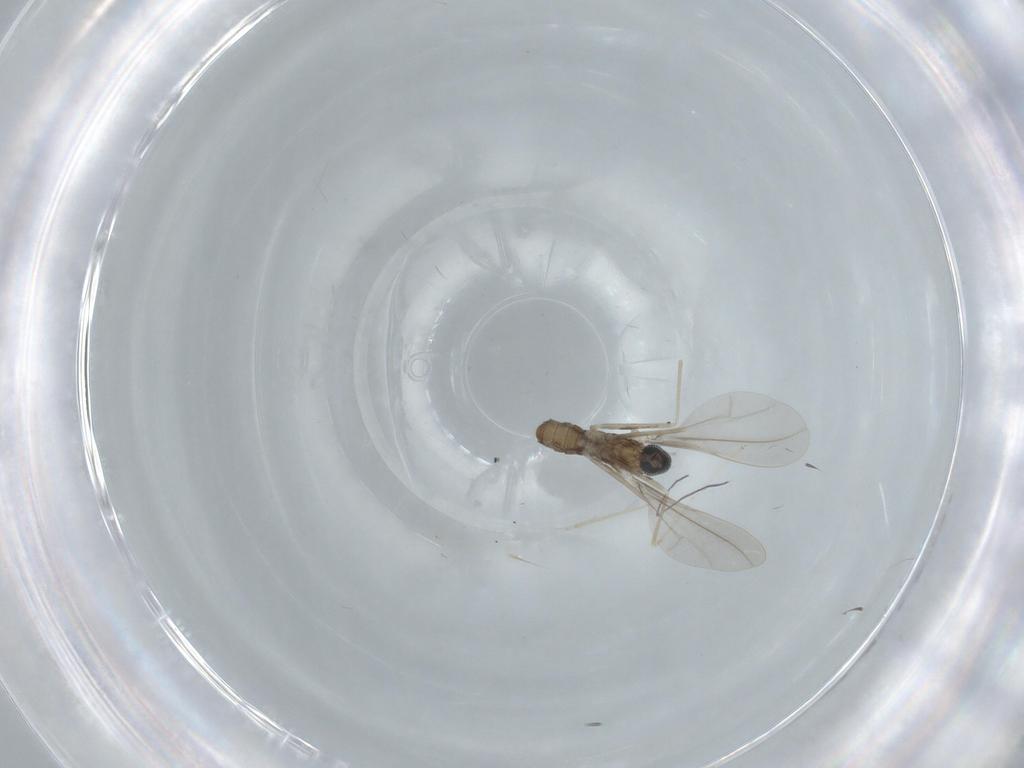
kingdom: Animalia
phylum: Arthropoda
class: Insecta
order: Diptera
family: Cecidomyiidae
